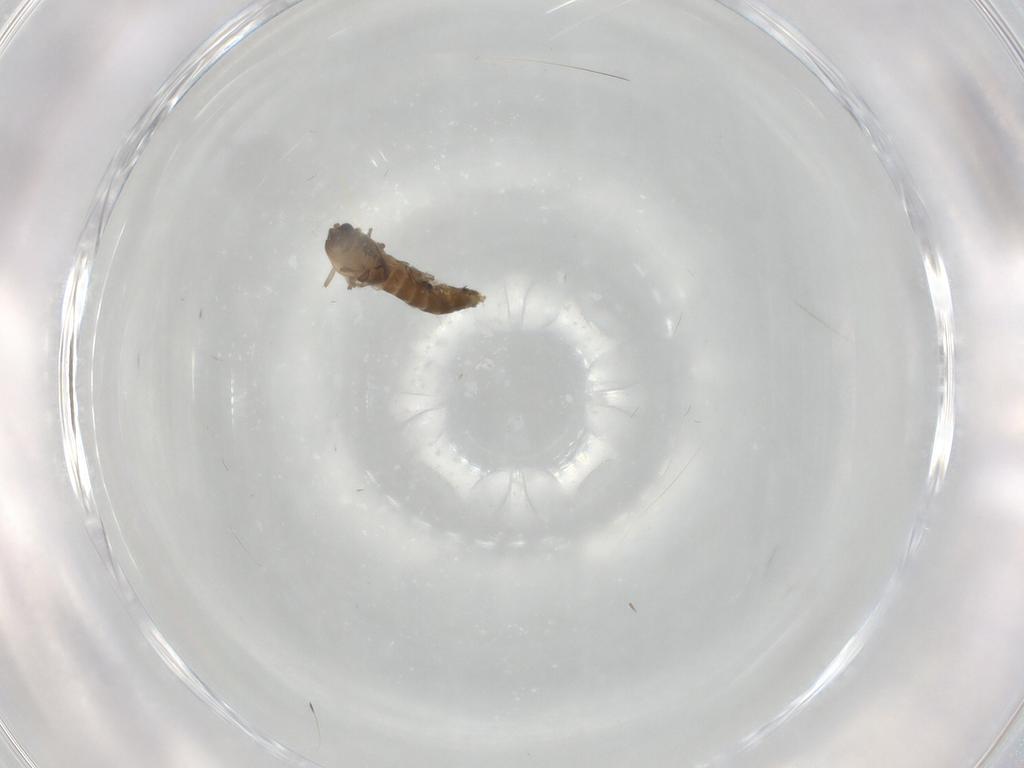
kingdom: Animalia
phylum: Arthropoda
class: Insecta
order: Diptera
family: Chironomidae
